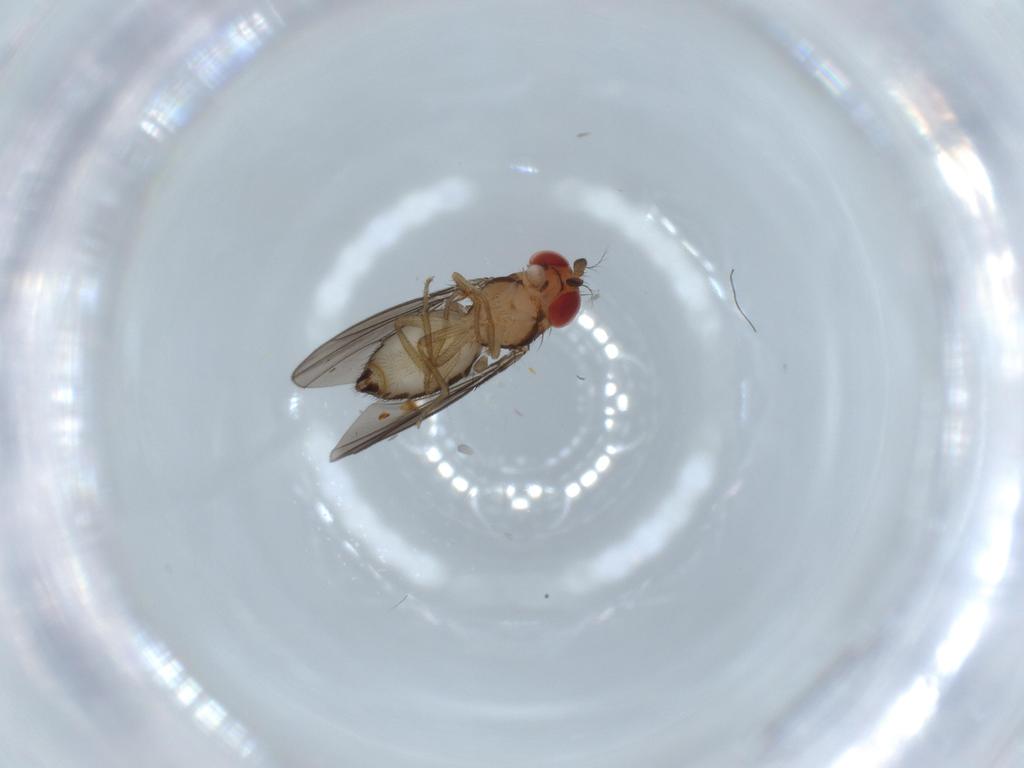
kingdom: Animalia
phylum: Arthropoda
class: Insecta
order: Diptera
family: Drosophilidae
